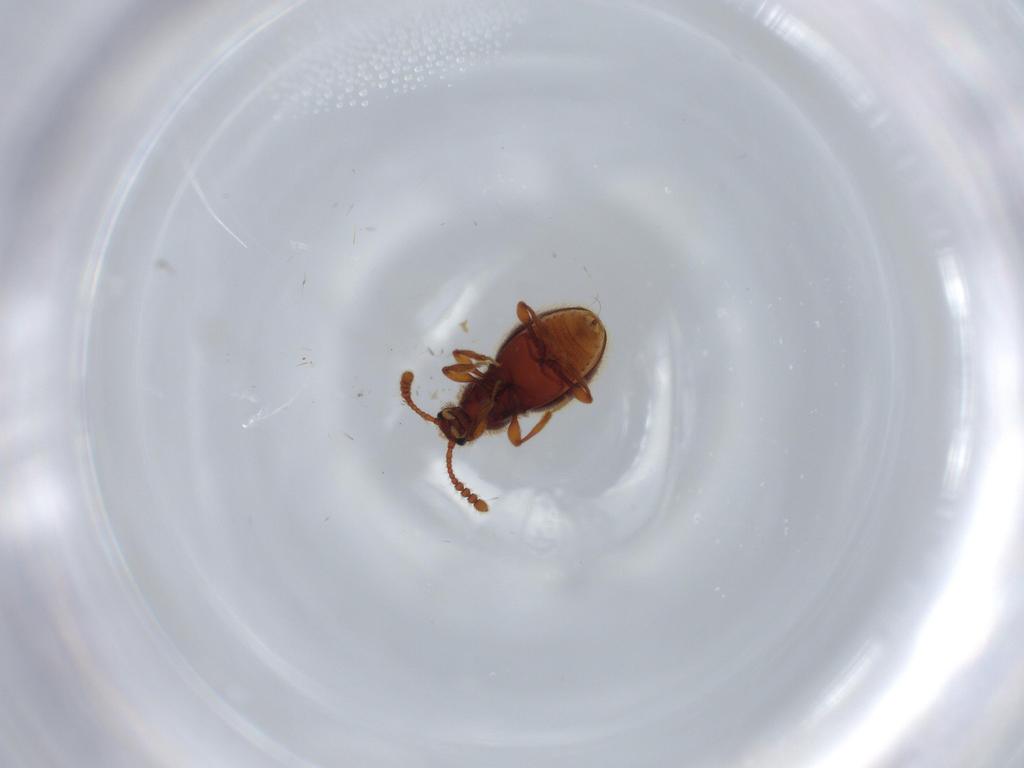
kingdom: Animalia
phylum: Arthropoda
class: Insecta
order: Coleoptera
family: Staphylinidae
